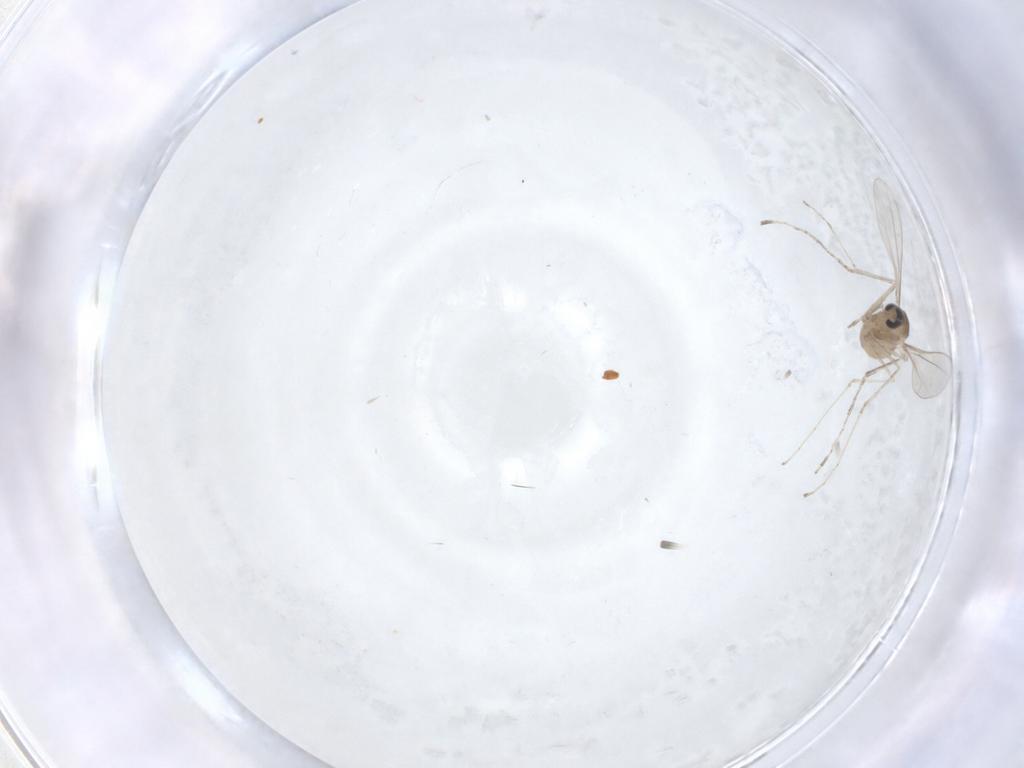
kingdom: Animalia
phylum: Arthropoda
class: Insecta
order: Diptera
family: Cecidomyiidae
